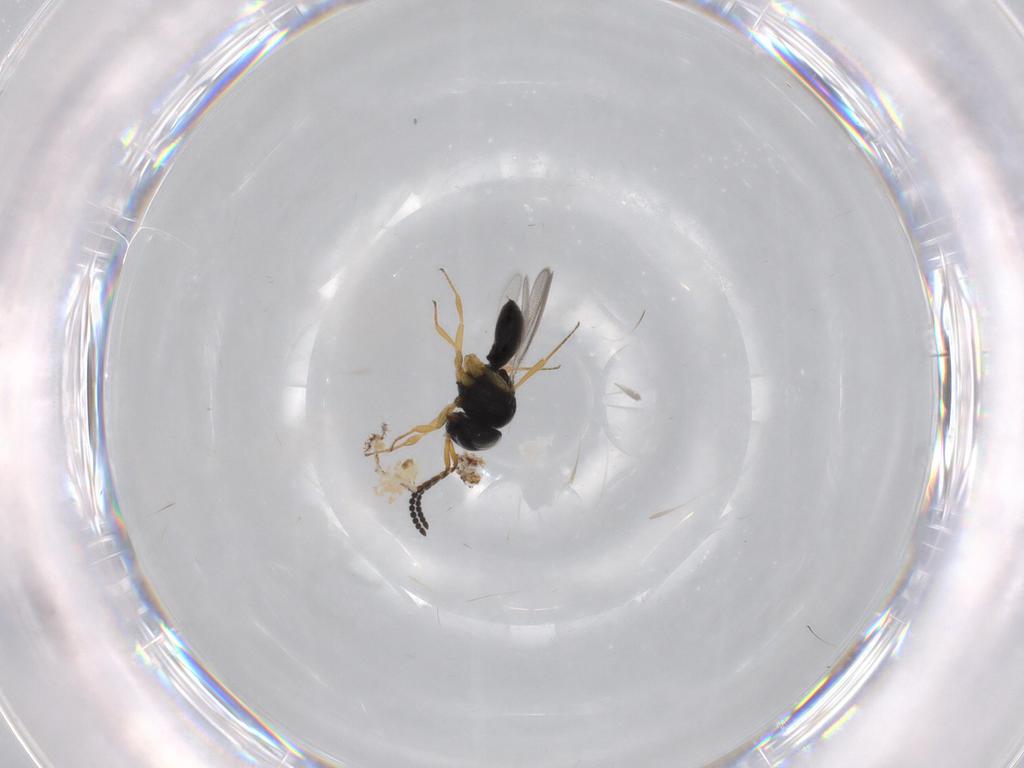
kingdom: Animalia
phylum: Arthropoda
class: Insecta
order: Hymenoptera
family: Scelionidae
